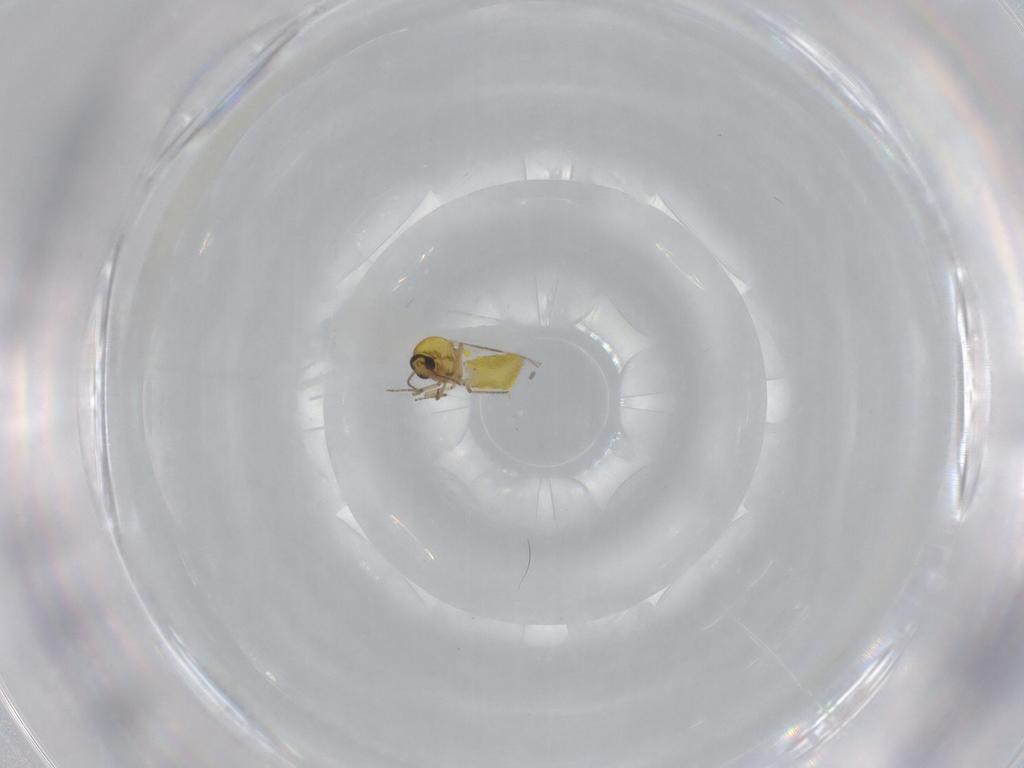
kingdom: Animalia
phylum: Arthropoda
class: Insecta
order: Diptera
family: Ceratopogonidae
